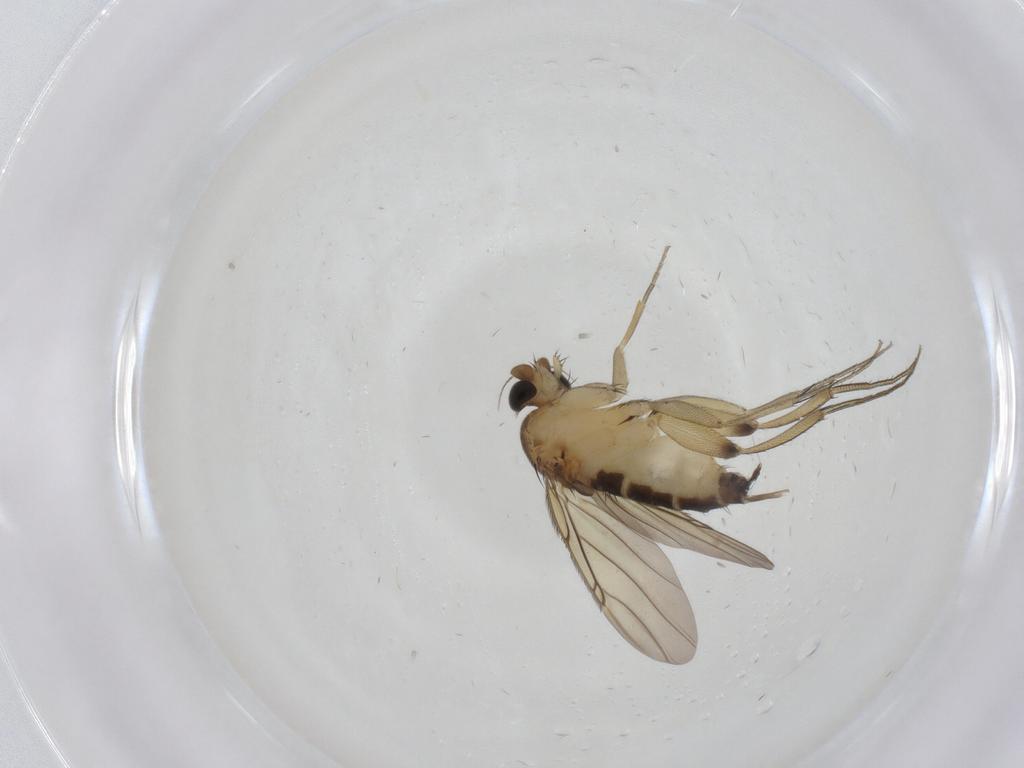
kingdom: Animalia
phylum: Arthropoda
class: Insecta
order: Diptera
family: Phoridae
